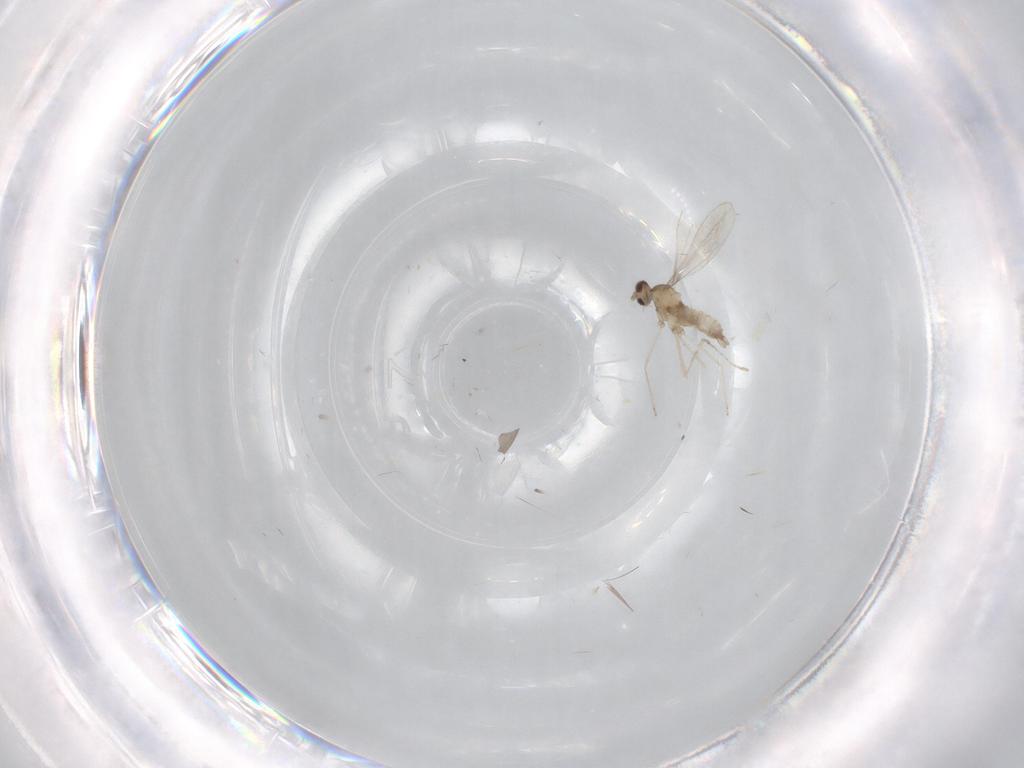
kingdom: Animalia
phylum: Arthropoda
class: Insecta
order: Diptera
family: Cecidomyiidae
